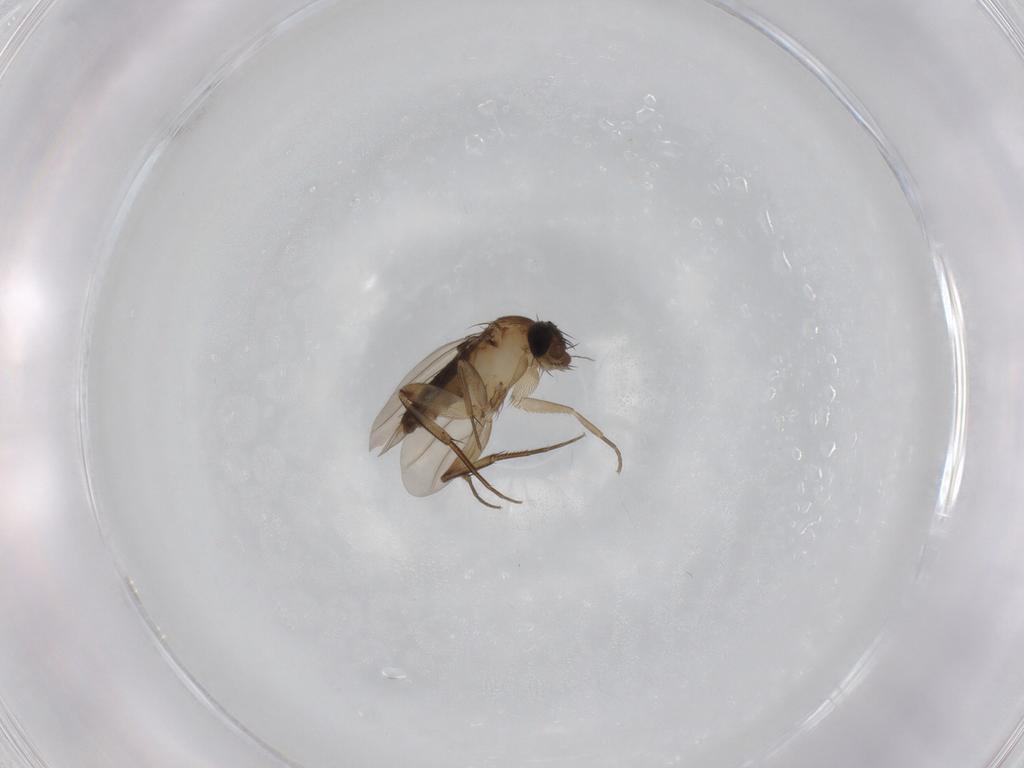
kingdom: Animalia
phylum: Arthropoda
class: Insecta
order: Diptera
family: Phoridae
